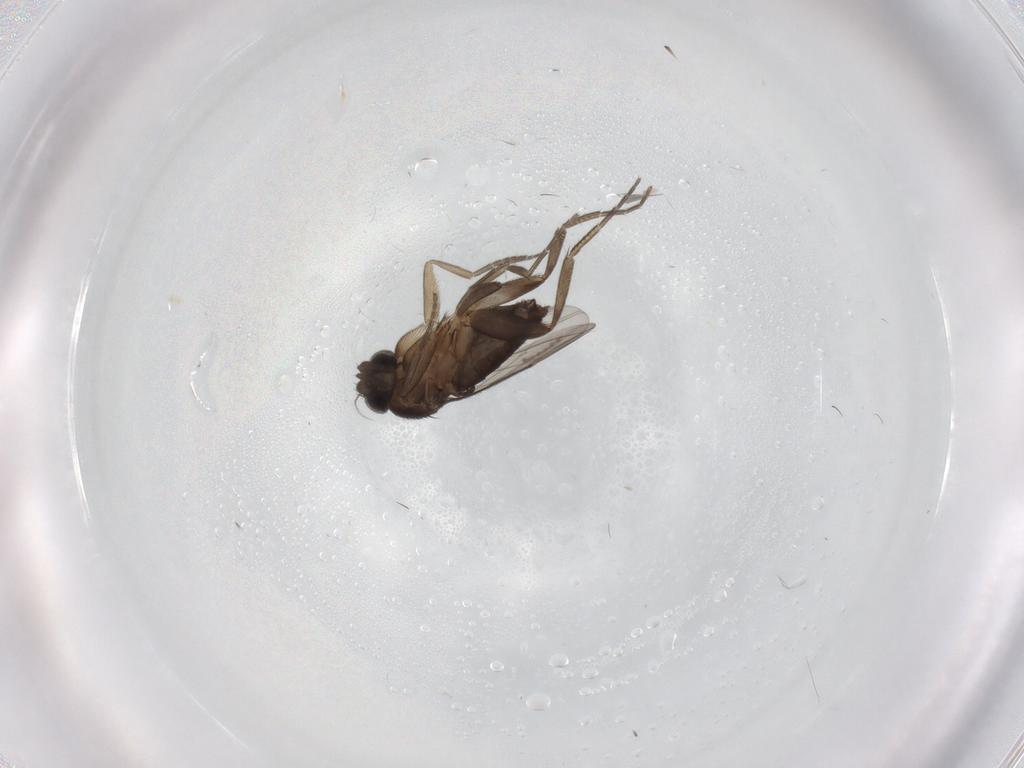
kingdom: Animalia
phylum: Arthropoda
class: Insecta
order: Diptera
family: Phoridae
